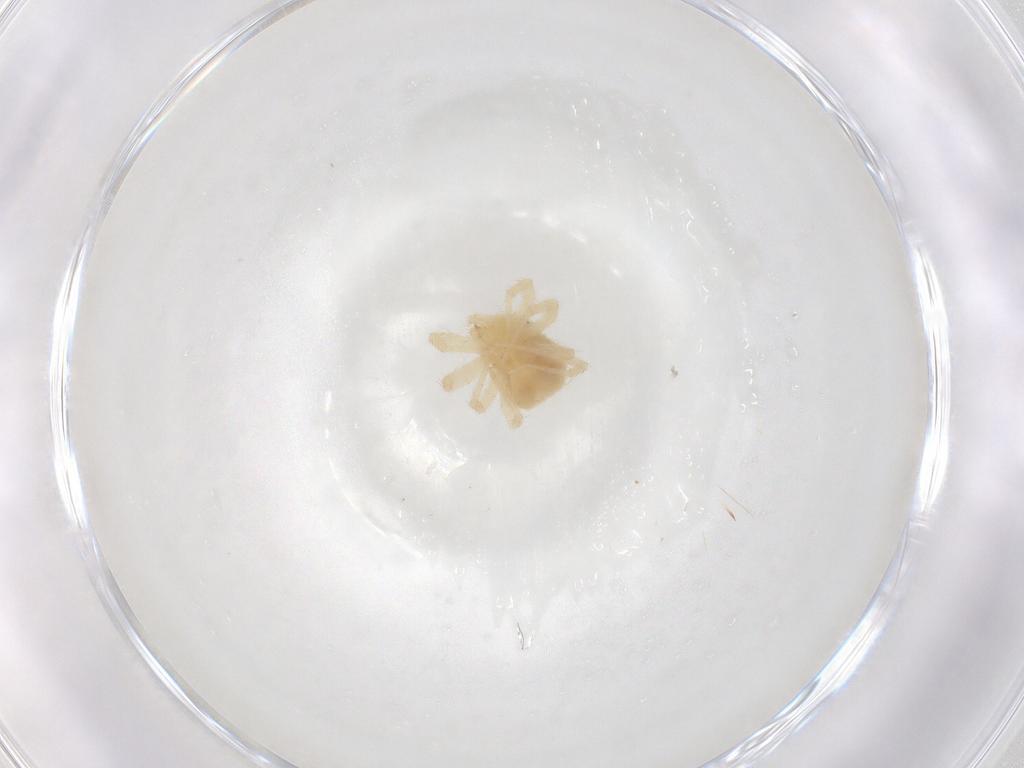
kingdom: Animalia
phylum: Arthropoda
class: Arachnida
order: Trombidiformes
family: Anystidae
